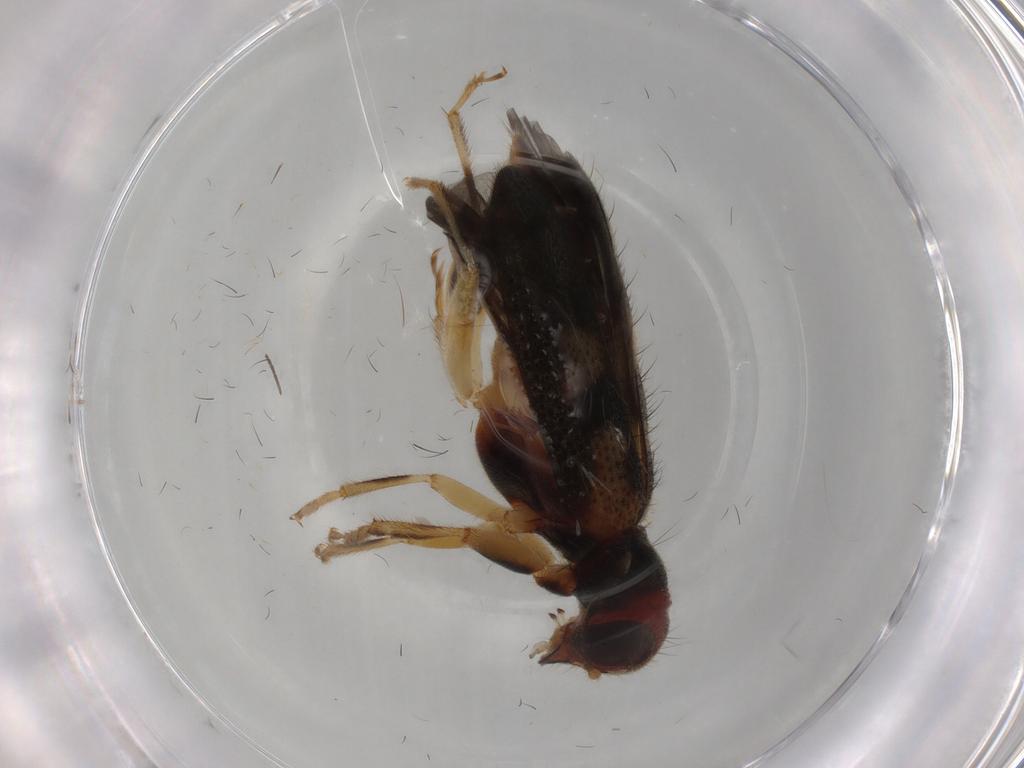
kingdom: Animalia
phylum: Arthropoda
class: Insecta
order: Coleoptera
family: Cleridae
